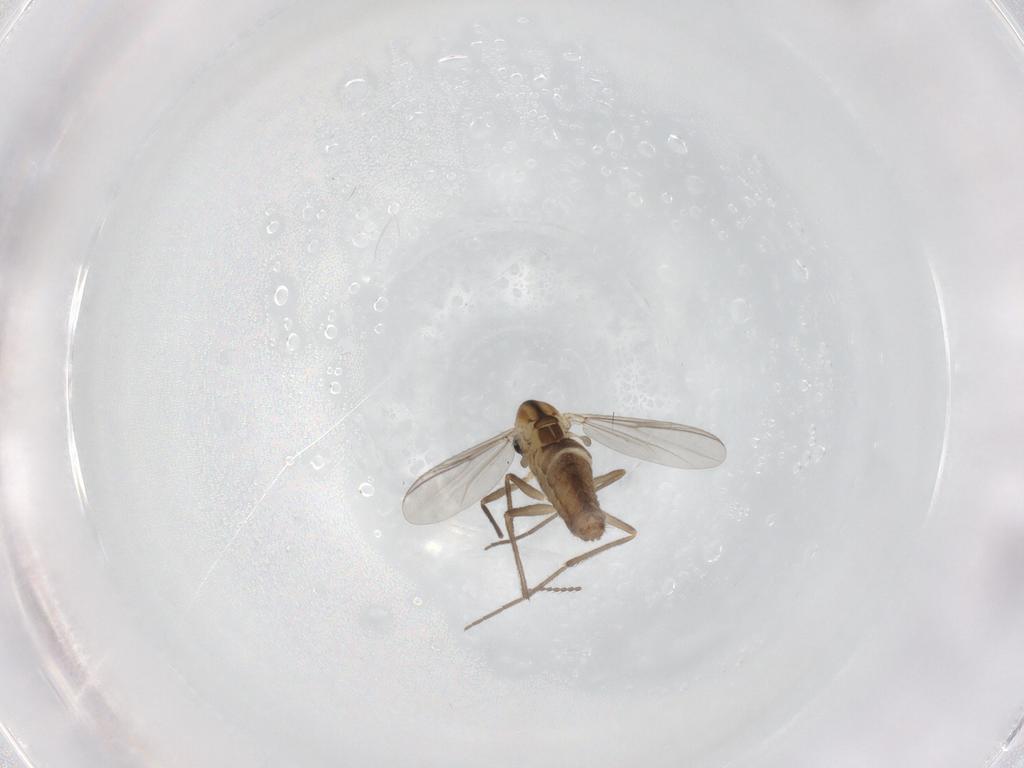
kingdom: Animalia
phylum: Arthropoda
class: Insecta
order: Diptera
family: Chironomidae
